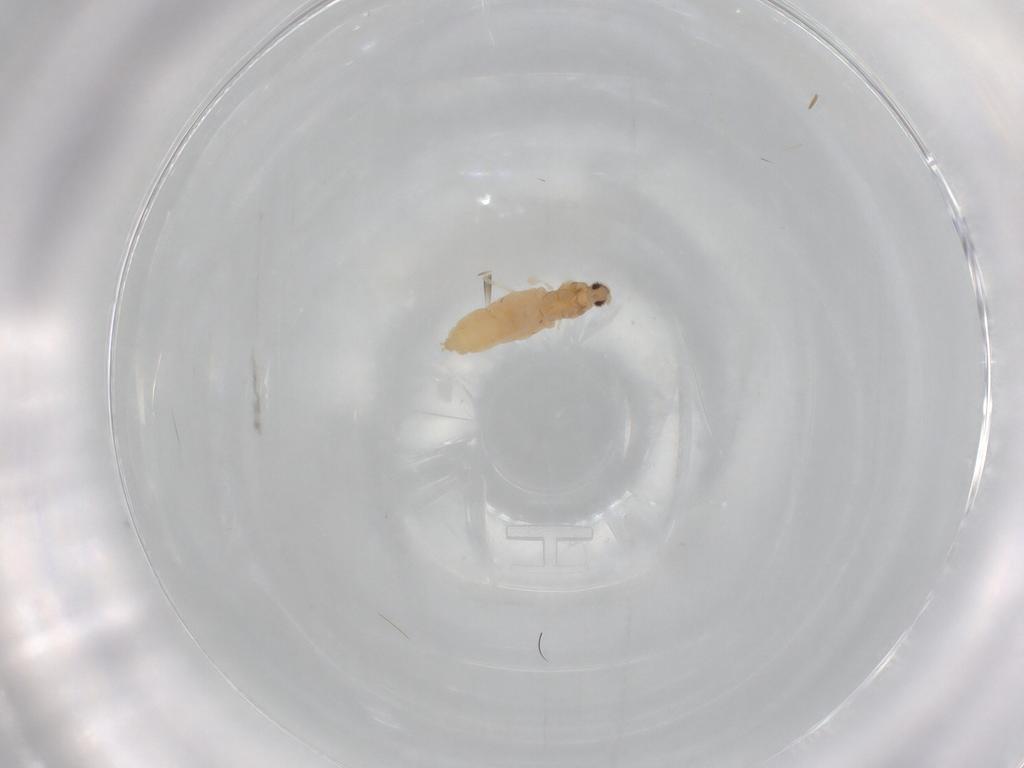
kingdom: Animalia
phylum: Arthropoda
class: Insecta
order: Diptera
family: Cecidomyiidae
